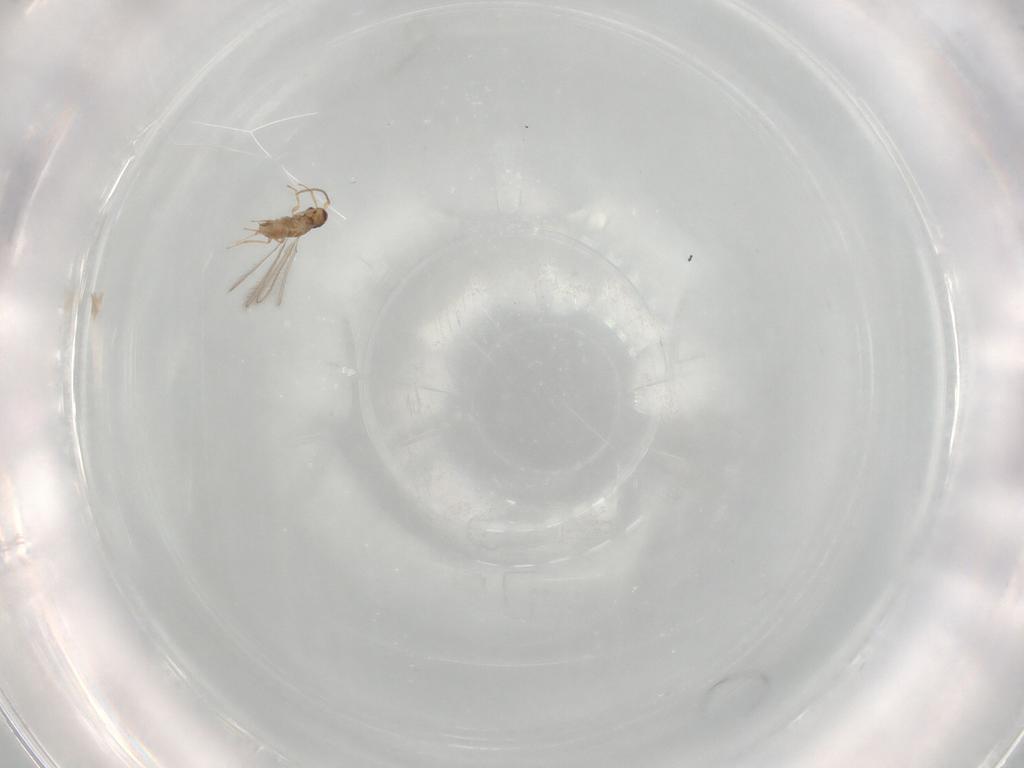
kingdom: Animalia
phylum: Arthropoda
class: Insecta
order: Hymenoptera
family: Mymaridae
